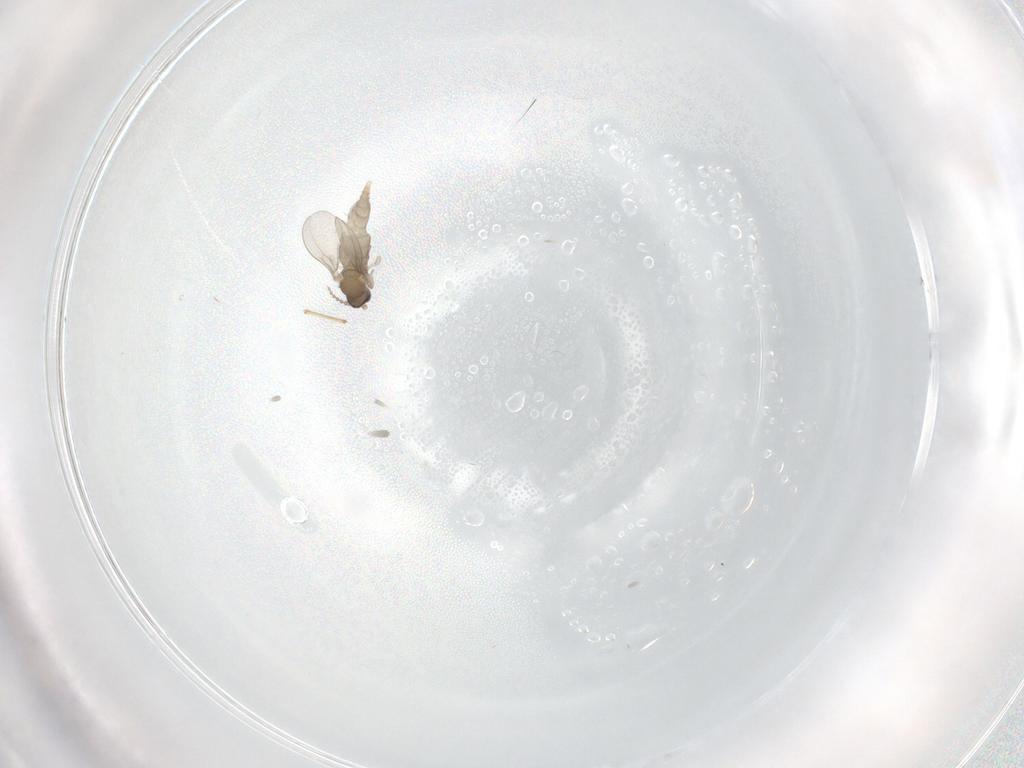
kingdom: Animalia
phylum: Arthropoda
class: Insecta
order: Diptera
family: Cecidomyiidae
